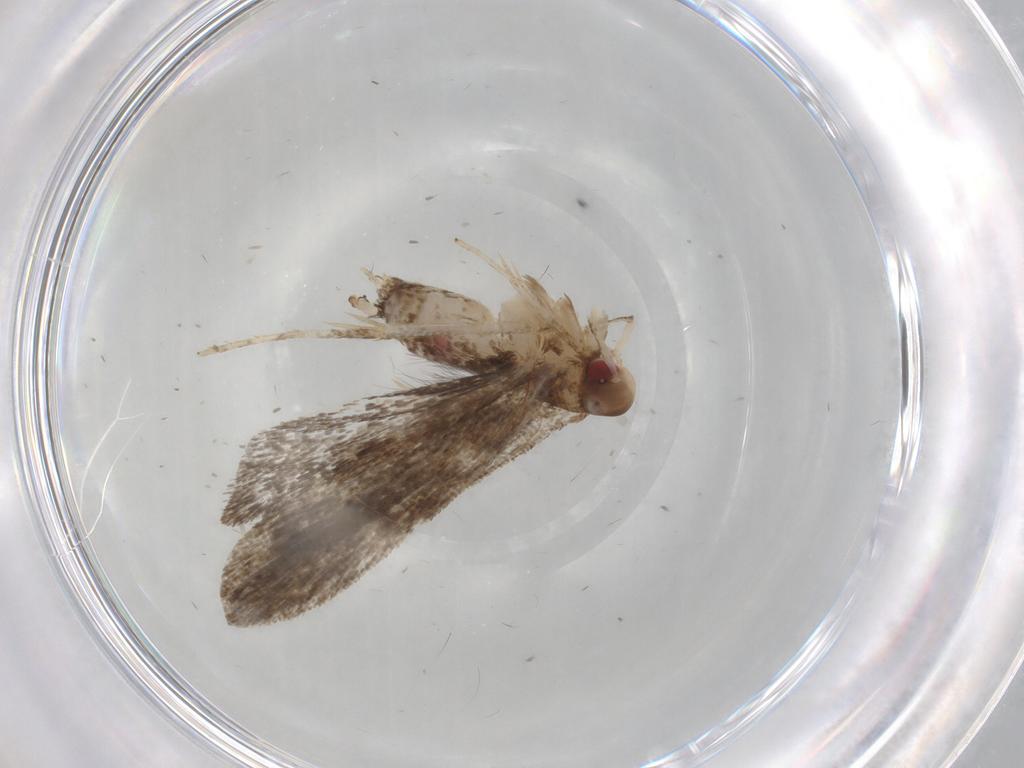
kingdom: Animalia
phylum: Arthropoda
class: Insecta
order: Lepidoptera
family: Gelechiidae
